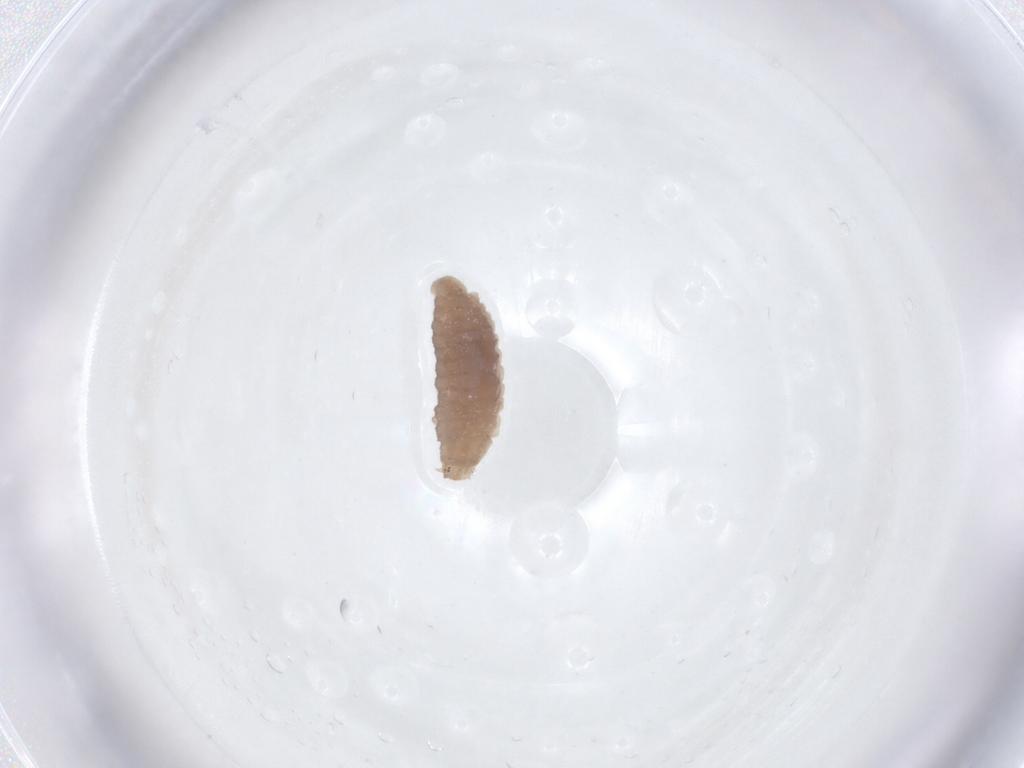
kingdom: Animalia
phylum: Arthropoda
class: Insecta
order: Coleoptera
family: Coccinellidae
